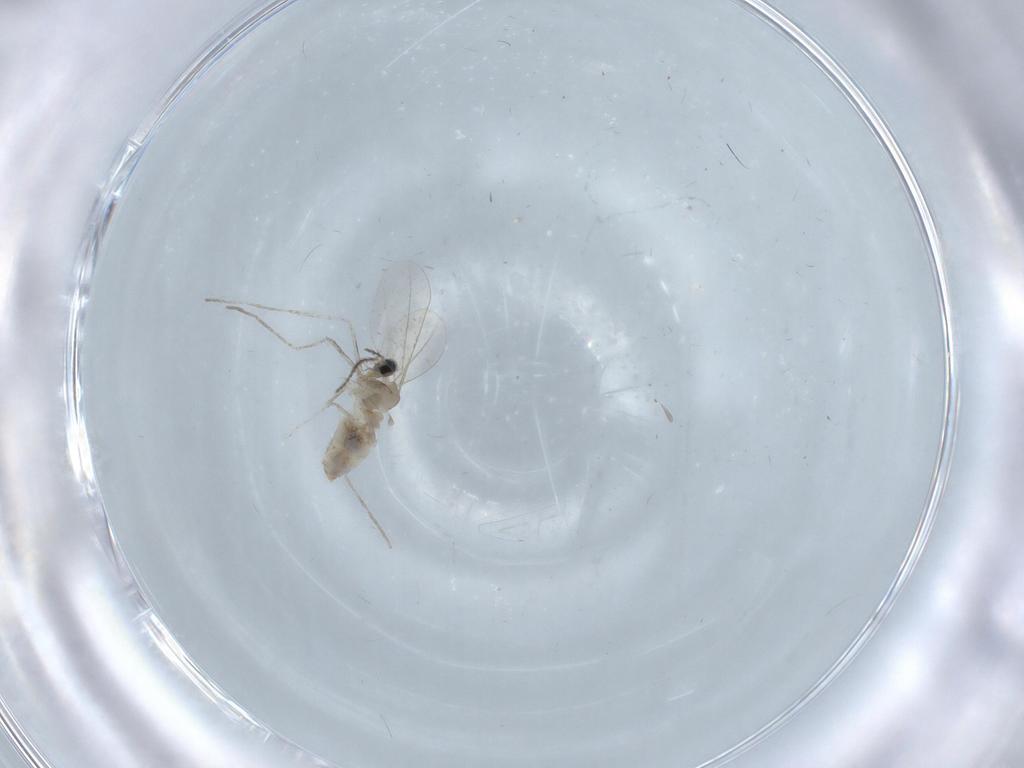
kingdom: Animalia
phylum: Arthropoda
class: Insecta
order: Diptera
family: Cecidomyiidae
